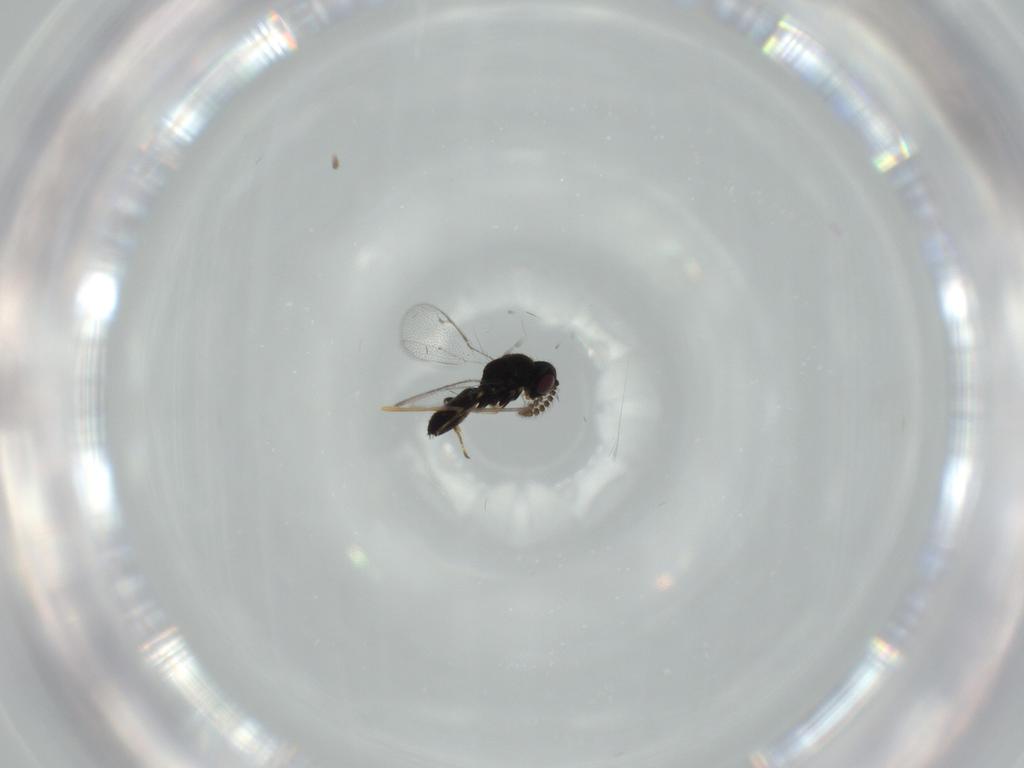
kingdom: Animalia
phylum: Arthropoda
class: Insecta
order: Hymenoptera
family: Pirenidae
